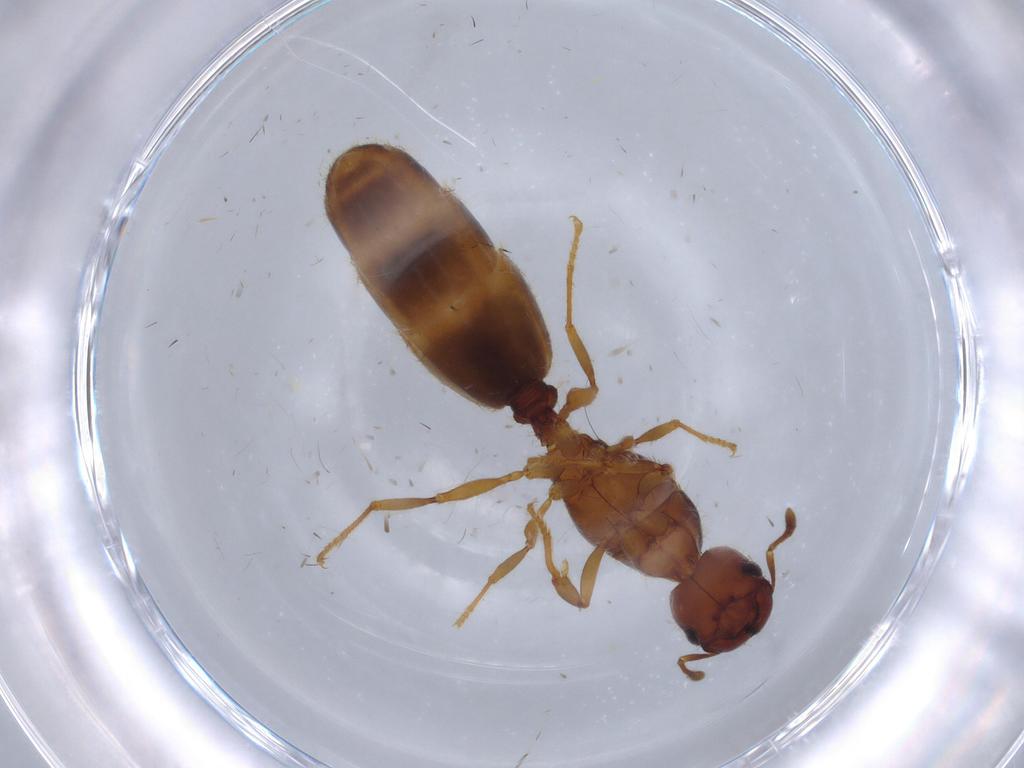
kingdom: Animalia
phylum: Arthropoda
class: Insecta
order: Hymenoptera
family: Formicidae
